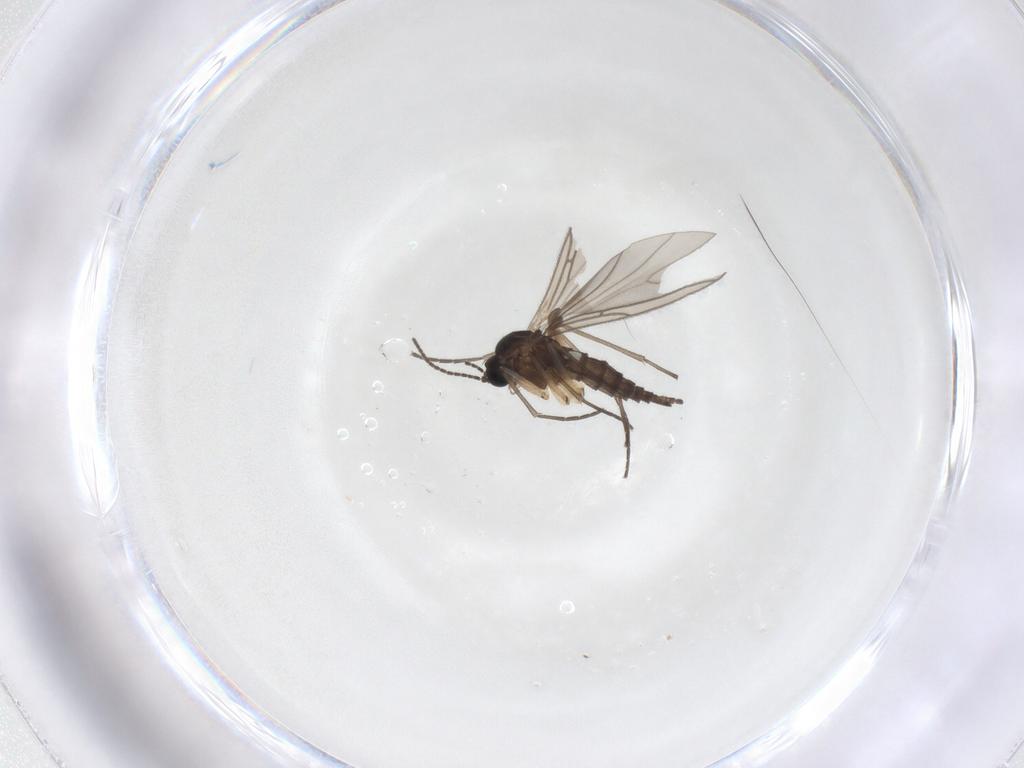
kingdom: Animalia
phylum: Arthropoda
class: Insecta
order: Diptera
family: Sciaridae
